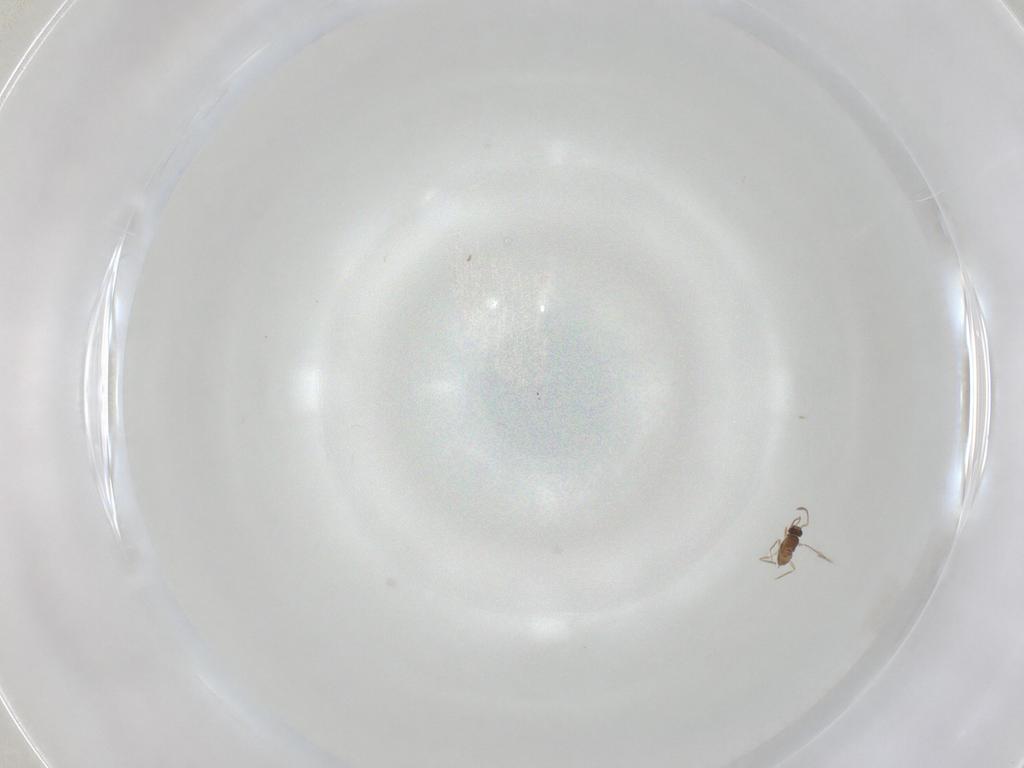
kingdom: Animalia
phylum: Arthropoda
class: Insecta
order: Hymenoptera
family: Mymaridae
